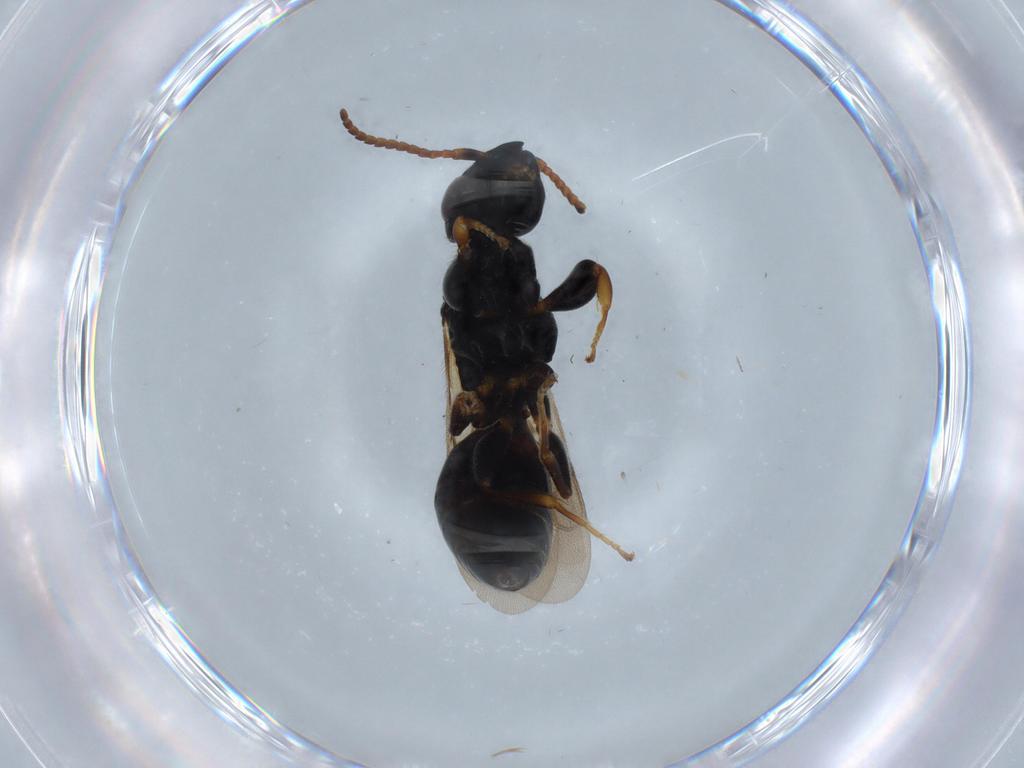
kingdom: Animalia
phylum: Arthropoda
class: Insecta
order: Hymenoptera
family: Bethylidae
